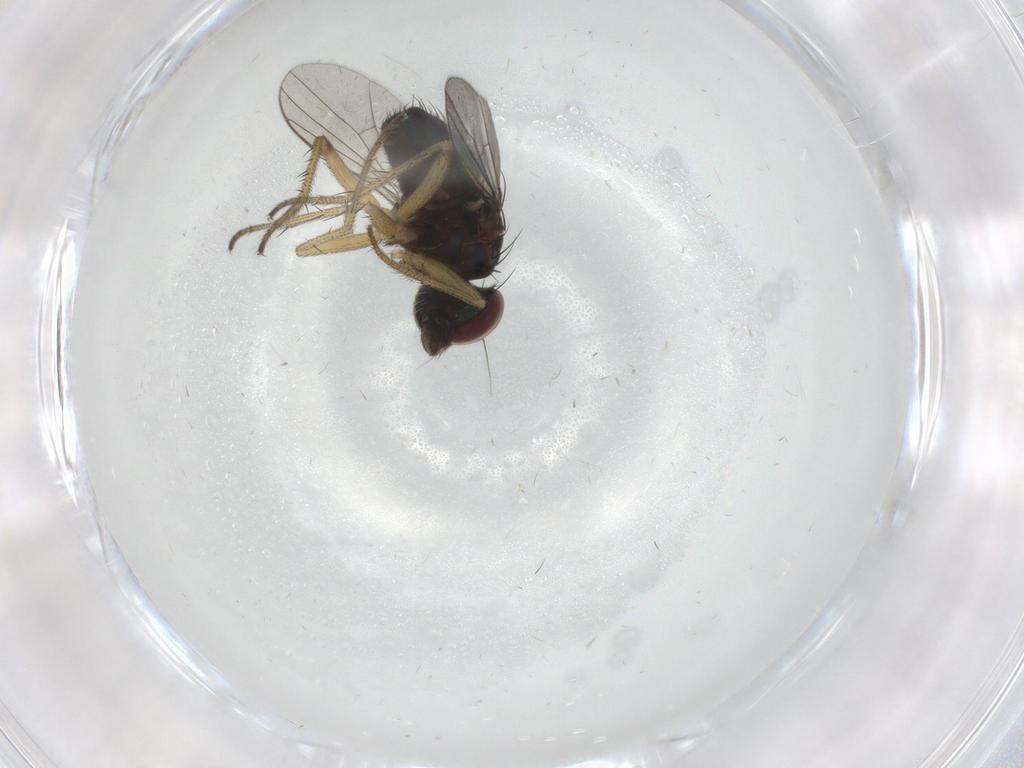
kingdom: Animalia
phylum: Arthropoda
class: Insecta
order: Diptera
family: Dolichopodidae
